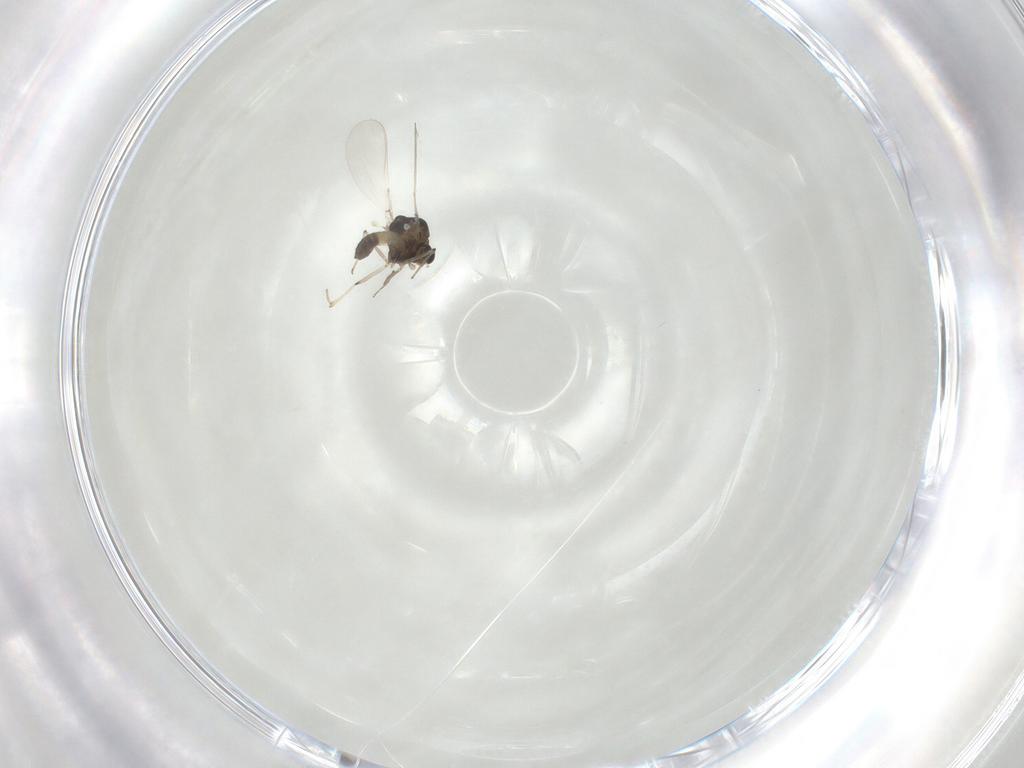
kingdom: Animalia
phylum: Arthropoda
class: Insecta
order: Diptera
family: Chironomidae
